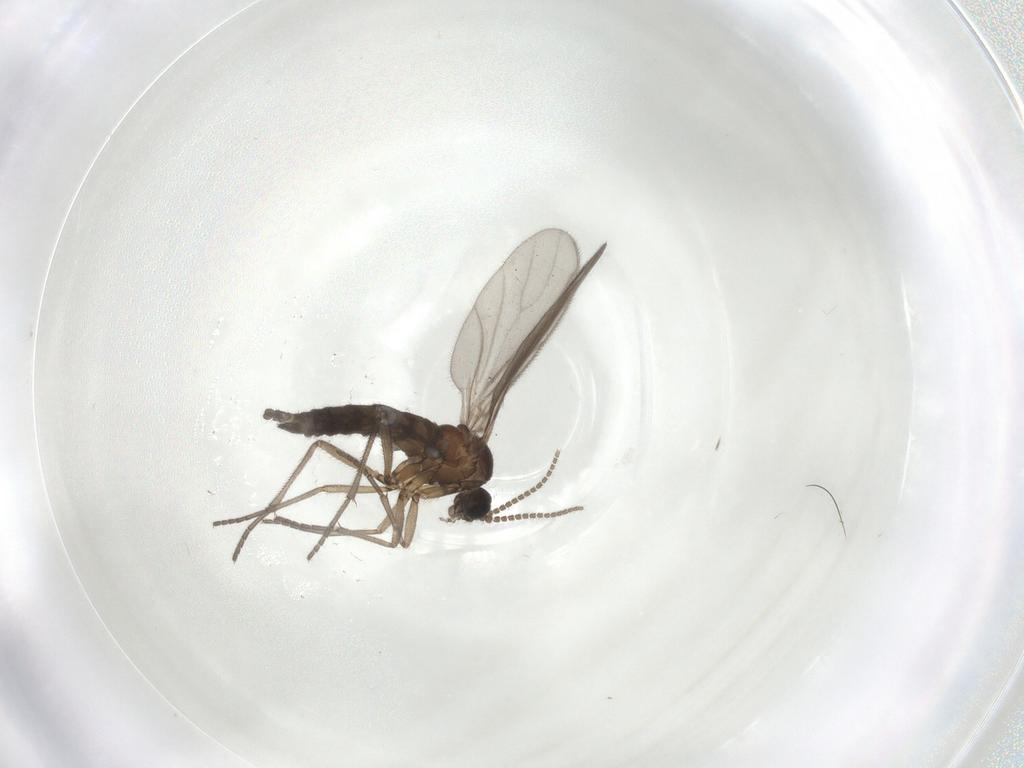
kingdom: Animalia
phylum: Arthropoda
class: Insecta
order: Diptera
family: Sciaridae
